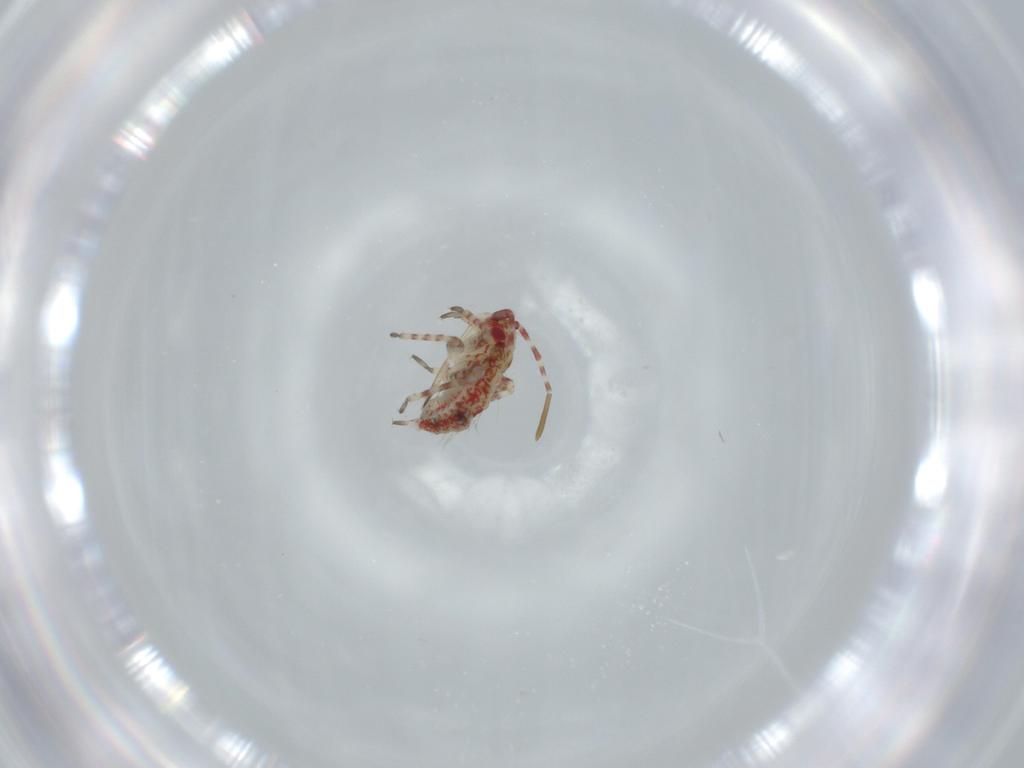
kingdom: Animalia
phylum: Arthropoda
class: Insecta
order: Hemiptera
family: Miridae
